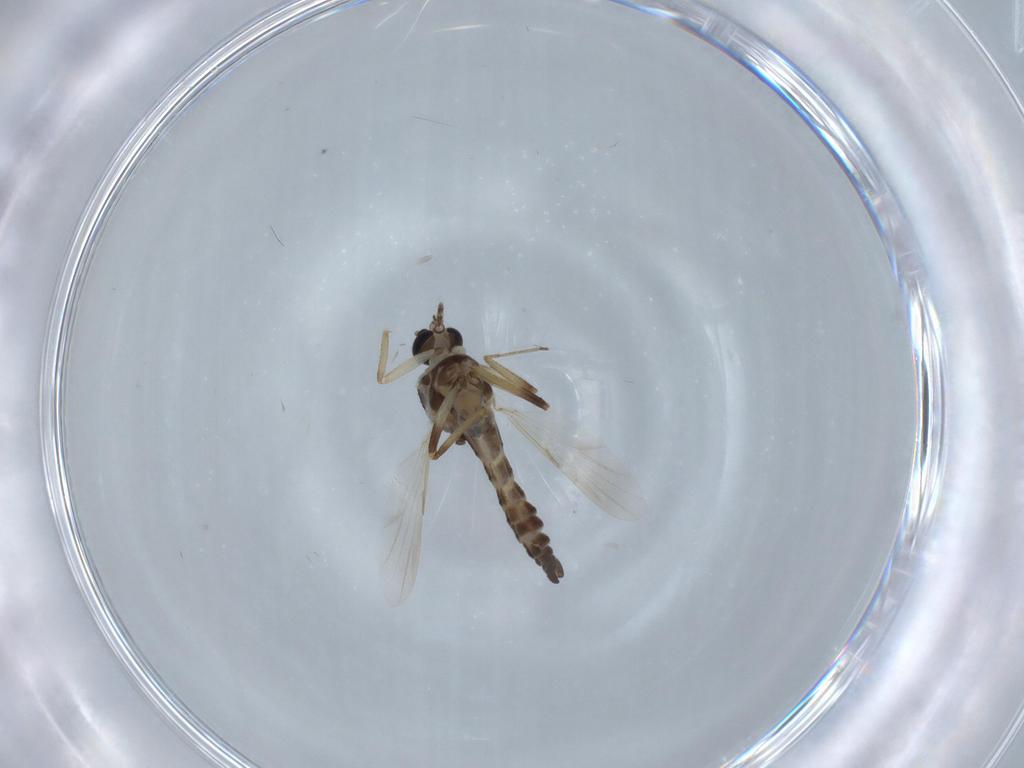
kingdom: Animalia
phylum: Arthropoda
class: Insecta
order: Diptera
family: Ceratopogonidae
